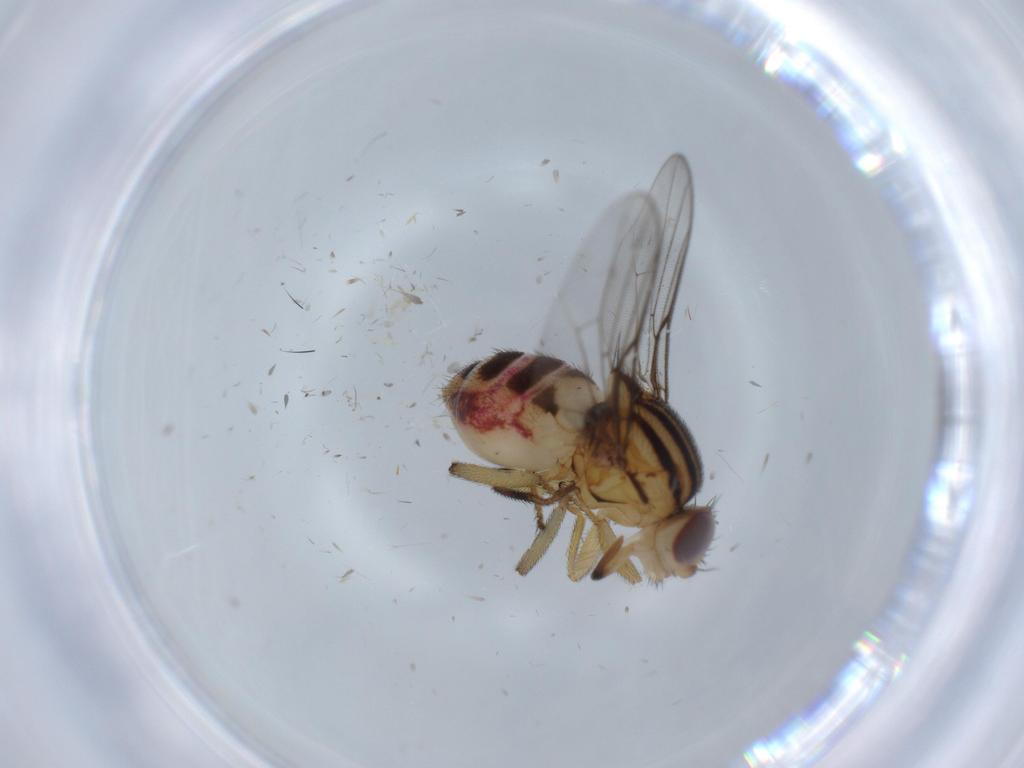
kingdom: Animalia
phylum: Arthropoda
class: Insecta
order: Diptera
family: Chloropidae
